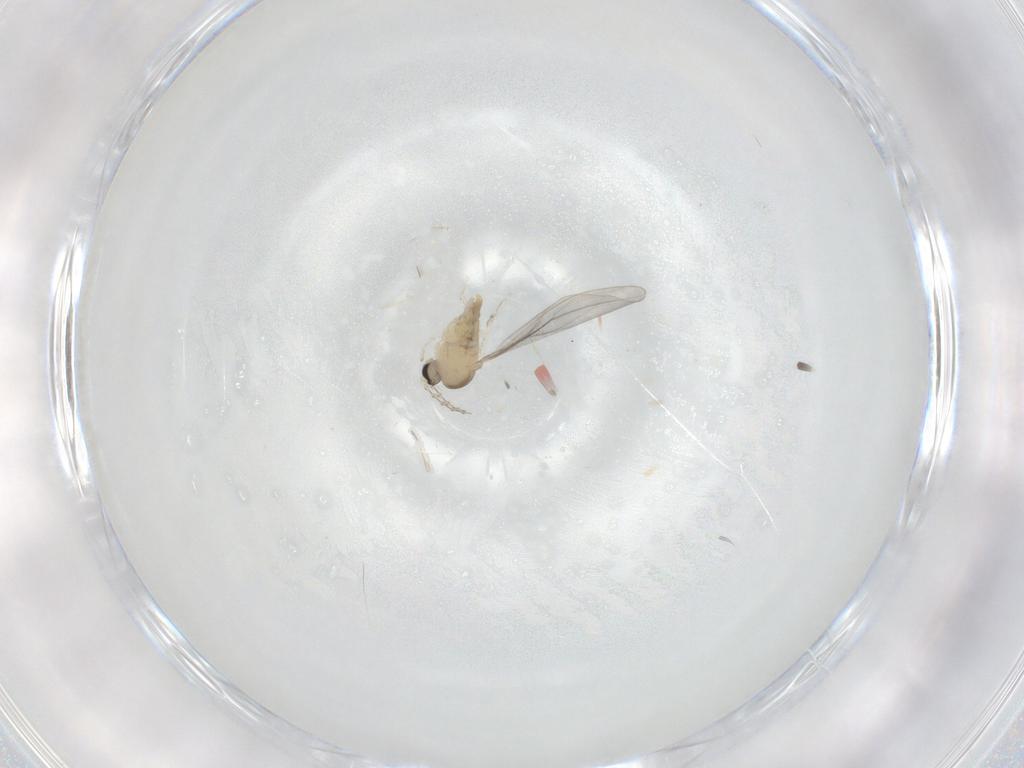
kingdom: Animalia
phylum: Arthropoda
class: Insecta
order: Diptera
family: Cecidomyiidae
